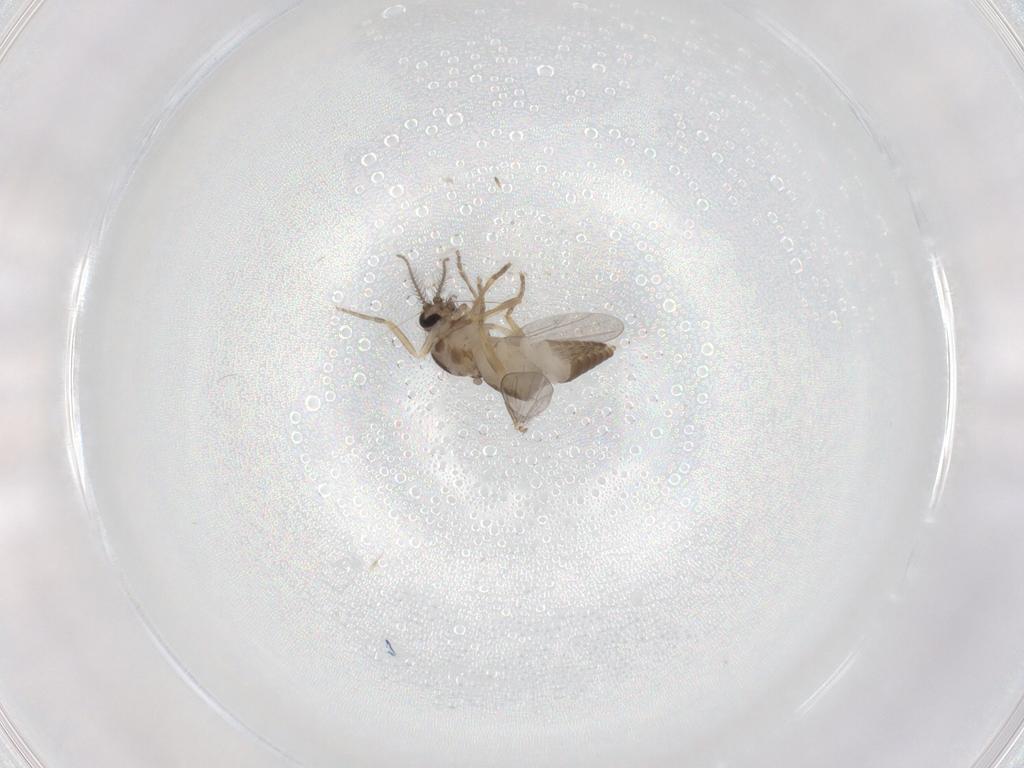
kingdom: Animalia
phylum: Arthropoda
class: Insecta
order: Diptera
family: Ceratopogonidae
